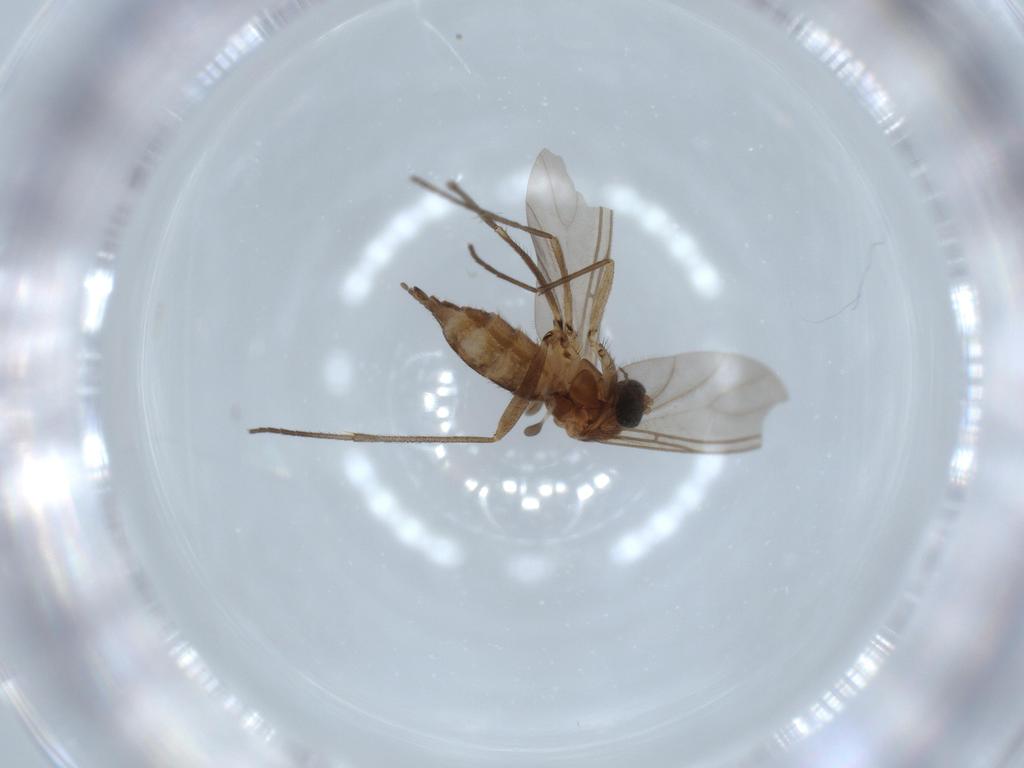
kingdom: Animalia
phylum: Arthropoda
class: Insecta
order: Diptera
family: Sciaridae
